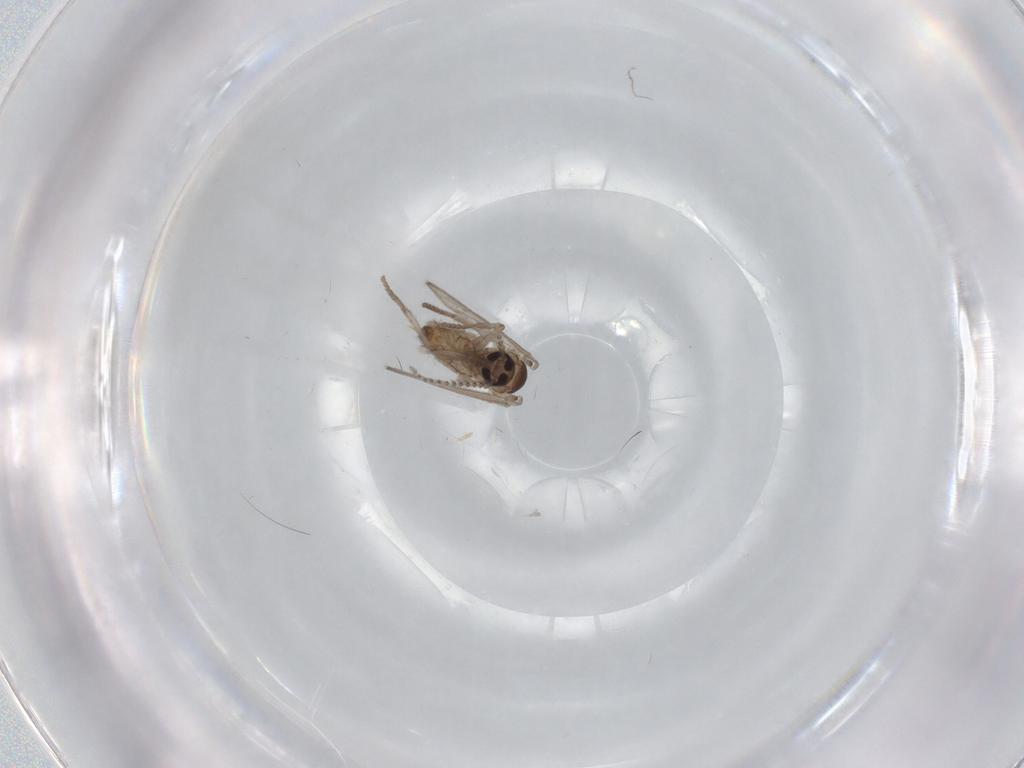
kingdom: Animalia
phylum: Arthropoda
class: Insecta
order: Diptera
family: Psychodidae
